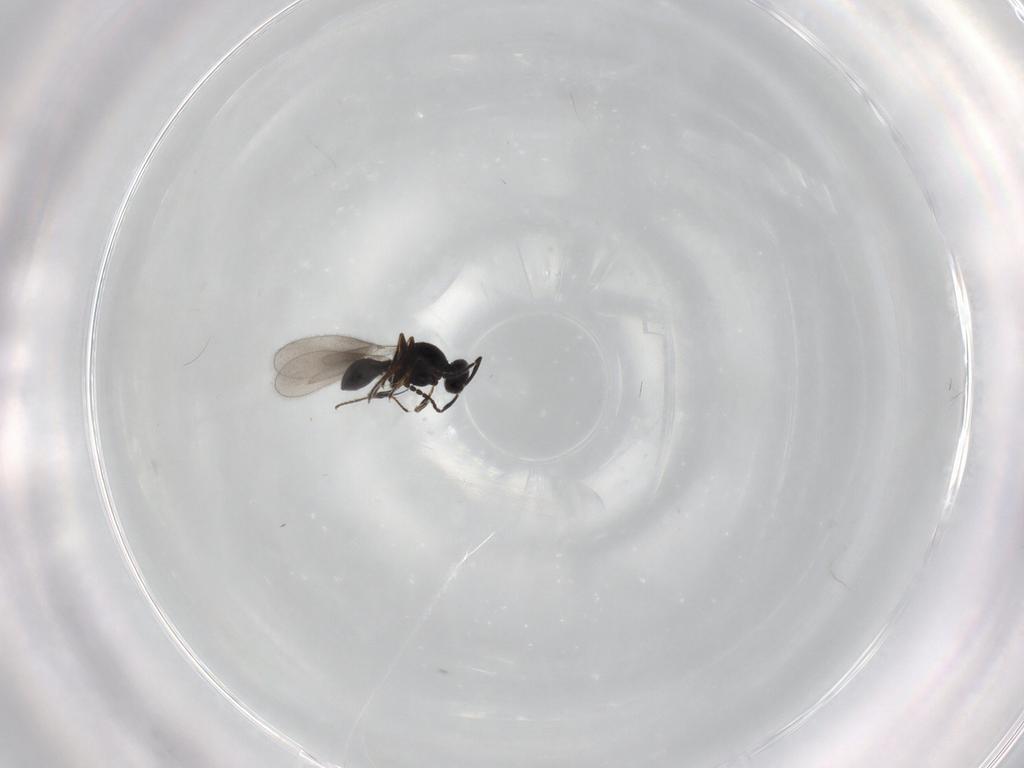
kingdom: Animalia
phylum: Arthropoda
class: Insecta
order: Hymenoptera
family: Platygastridae
